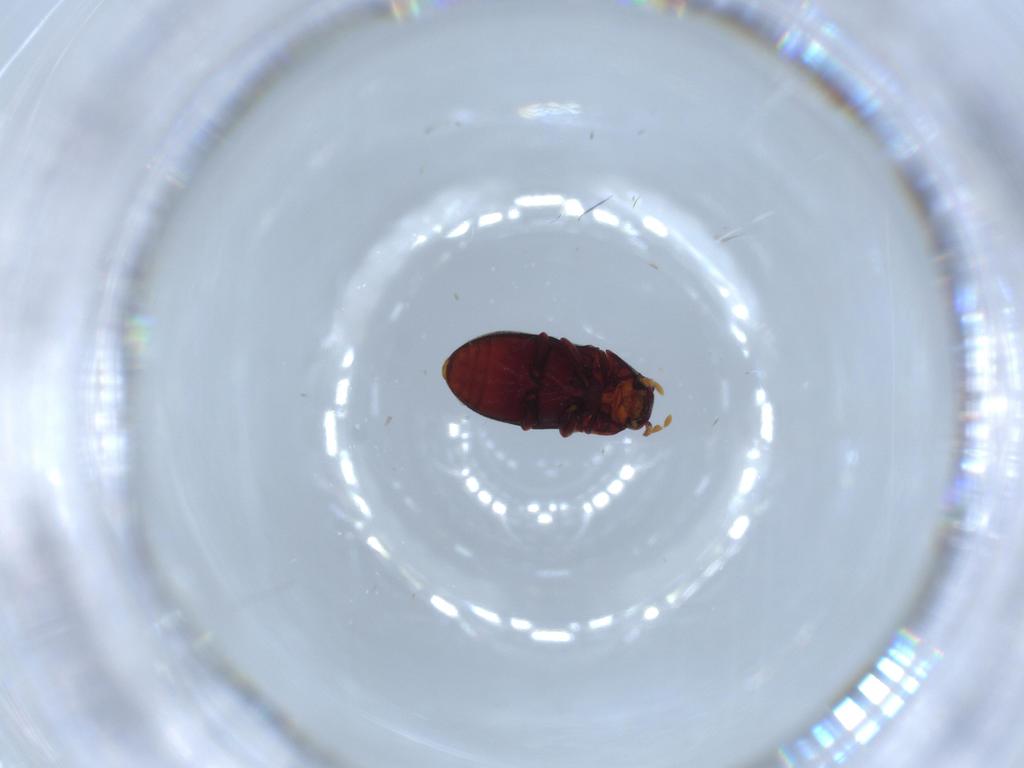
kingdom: Animalia
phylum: Arthropoda
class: Insecta
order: Coleoptera
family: Ptinidae
